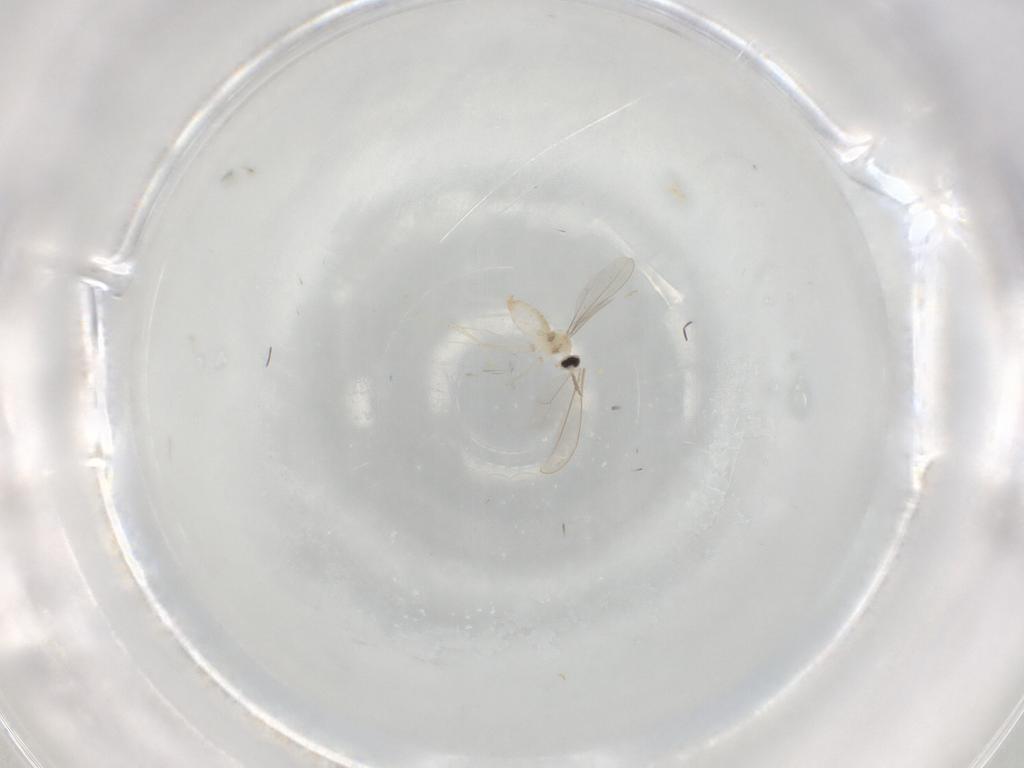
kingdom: Animalia
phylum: Arthropoda
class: Insecta
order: Diptera
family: Cecidomyiidae
